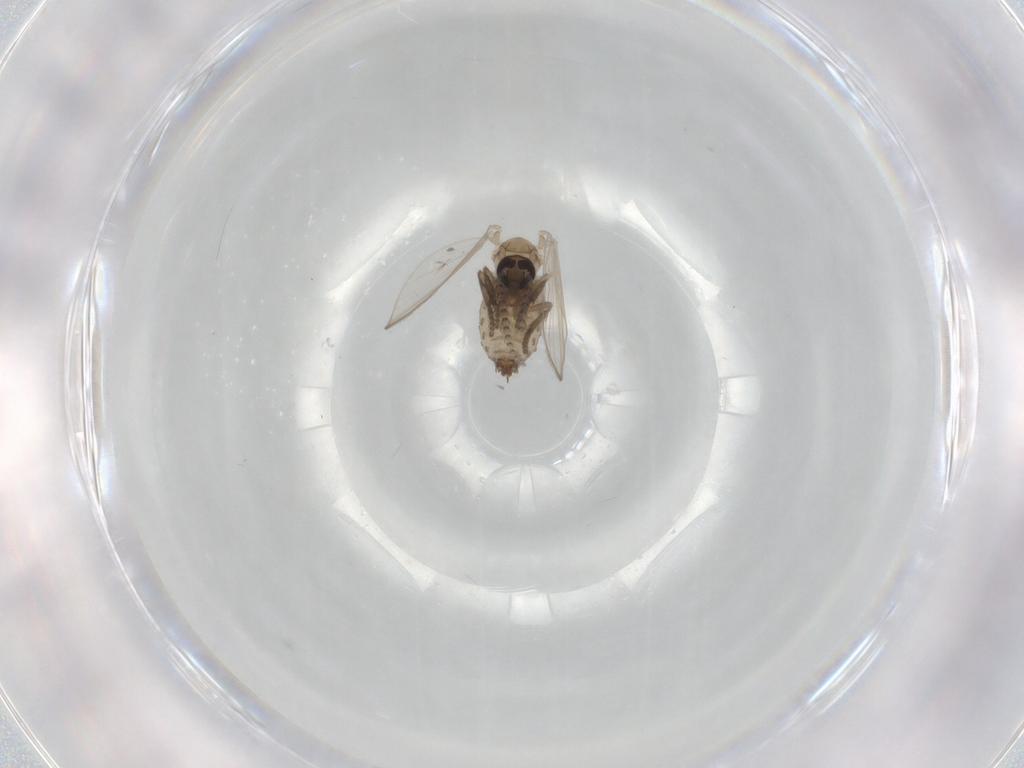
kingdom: Animalia
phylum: Arthropoda
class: Insecta
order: Diptera
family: Psychodidae
